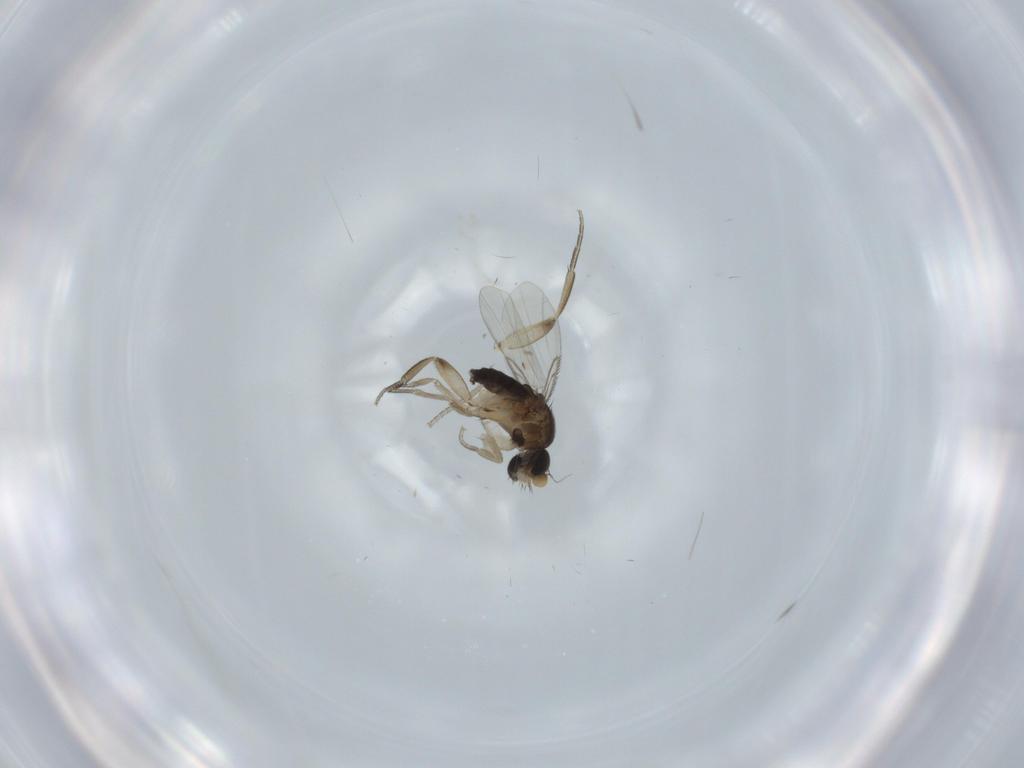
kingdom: Animalia
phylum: Arthropoda
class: Insecta
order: Diptera
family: Phoridae
